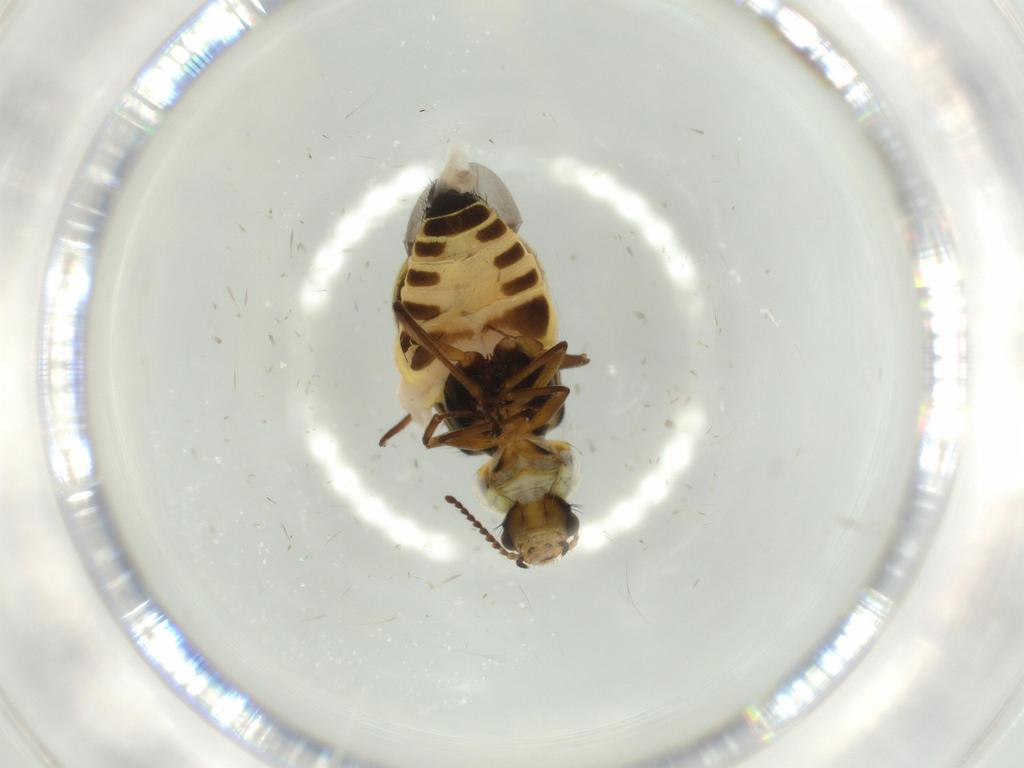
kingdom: Animalia
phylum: Arthropoda
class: Insecta
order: Coleoptera
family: Melyridae
